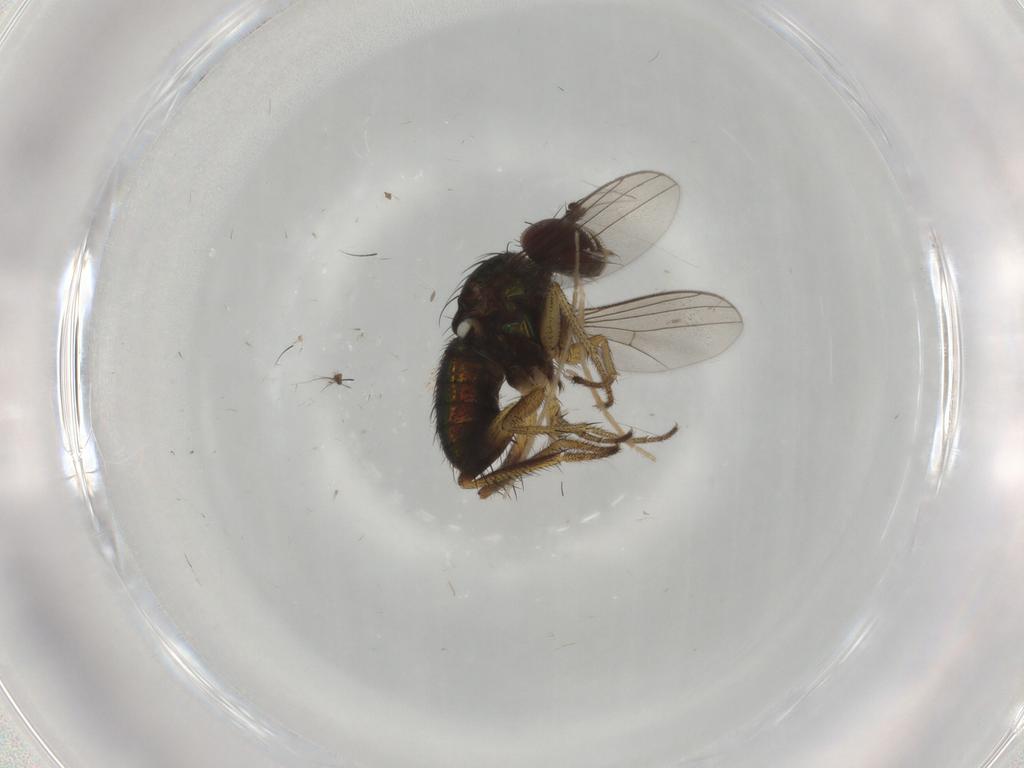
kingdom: Animalia
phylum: Arthropoda
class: Insecta
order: Diptera
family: Dolichopodidae
